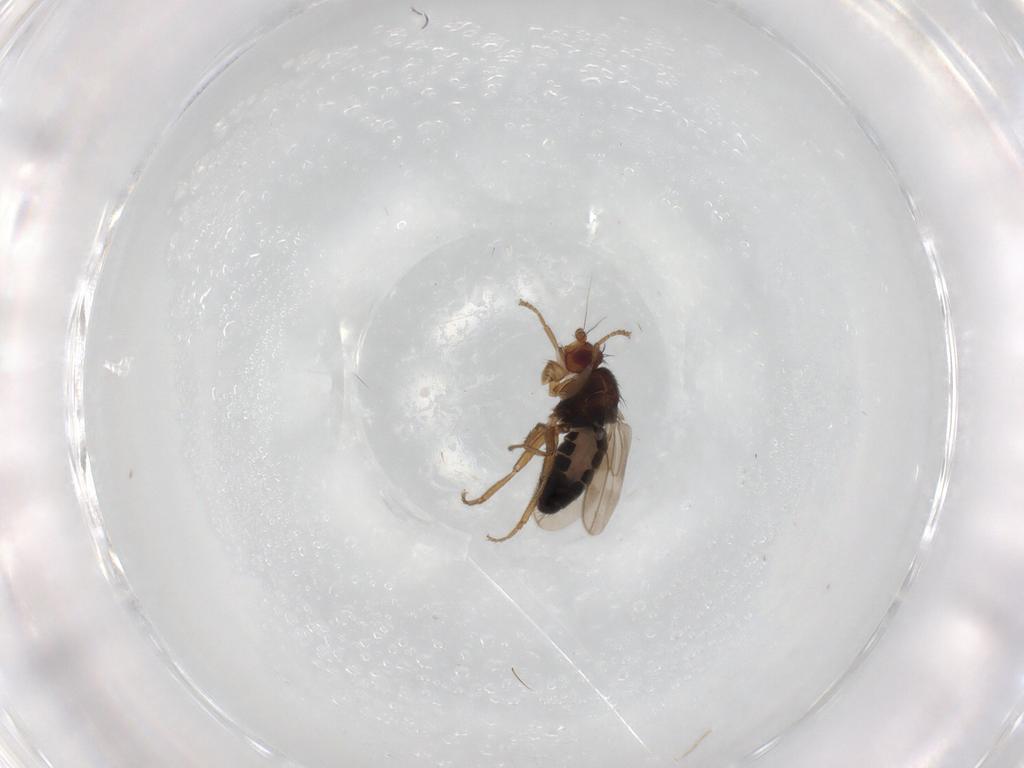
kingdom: Animalia
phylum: Arthropoda
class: Insecta
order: Diptera
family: Sphaeroceridae
